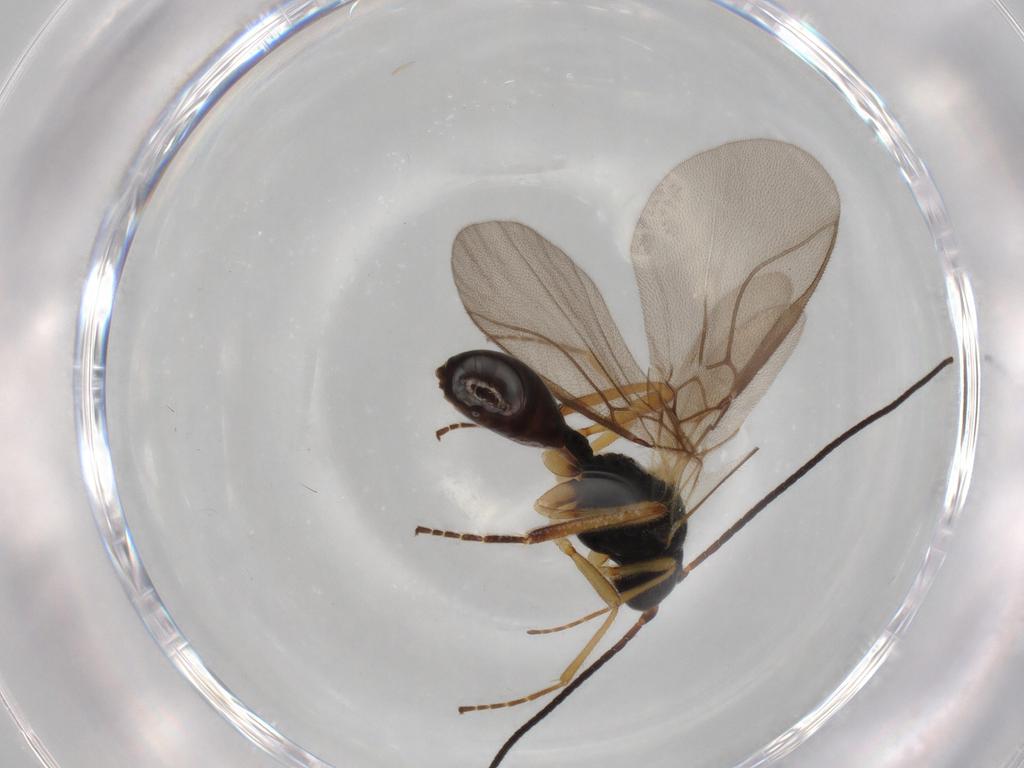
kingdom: Animalia
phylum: Arthropoda
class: Insecta
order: Hymenoptera
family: Braconidae
